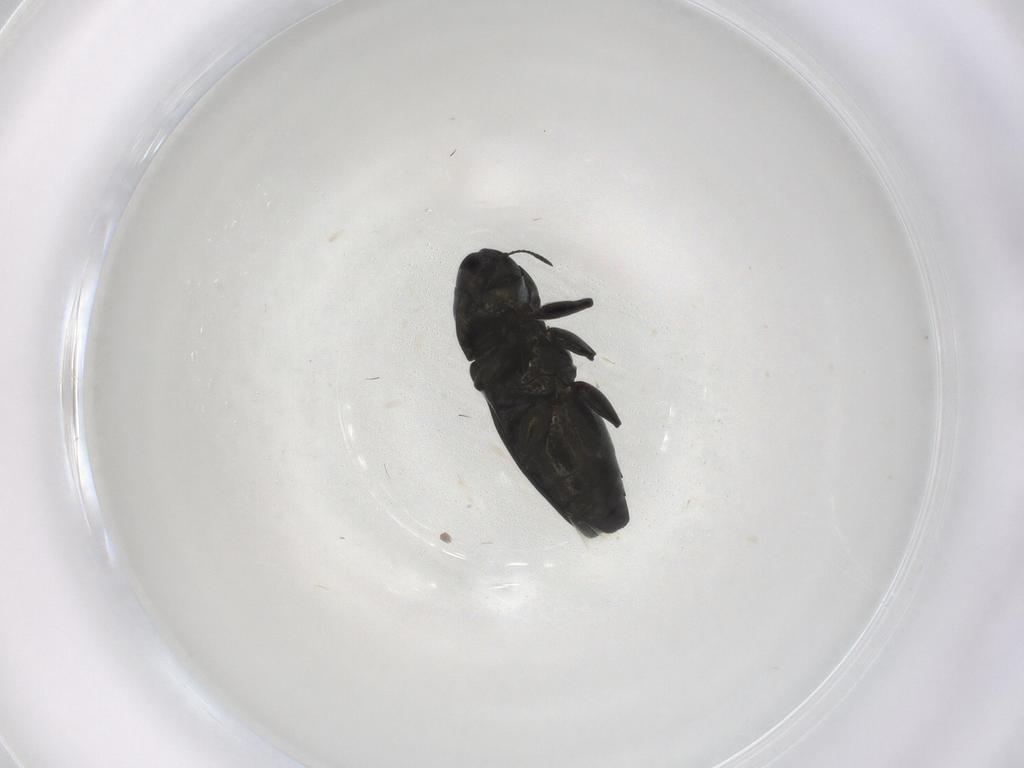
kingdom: Animalia
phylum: Arthropoda
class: Insecta
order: Coleoptera
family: Buprestidae
